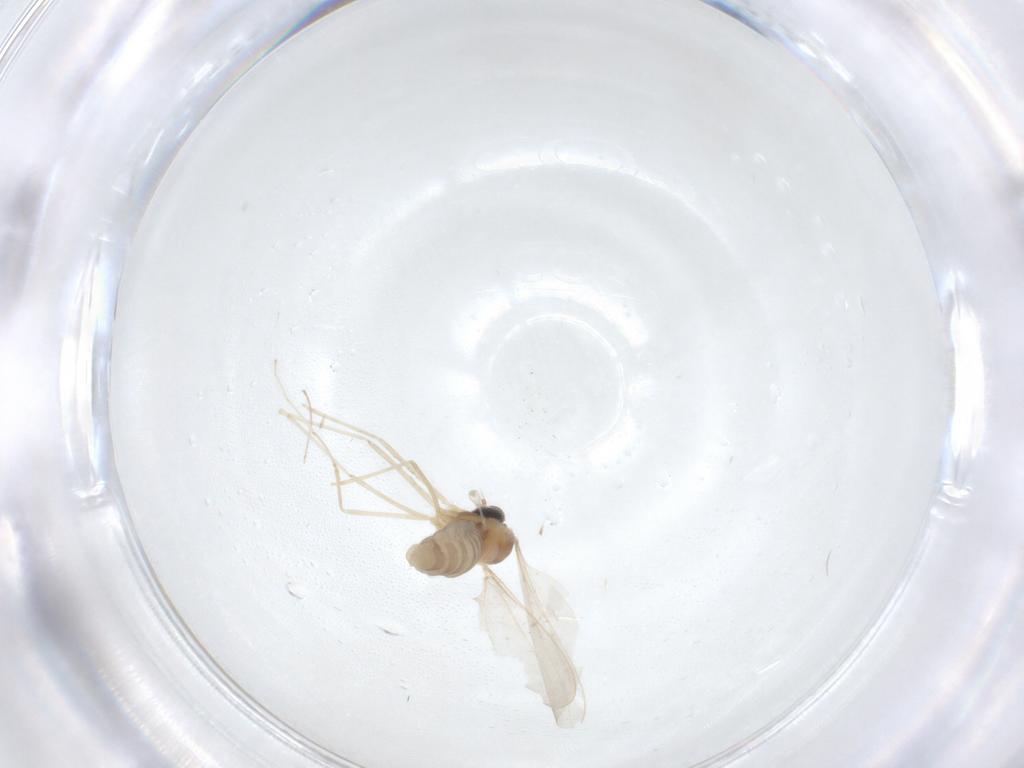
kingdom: Animalia
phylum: Arthropoda
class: Insecta
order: Diptera
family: Cecidomyiidae
